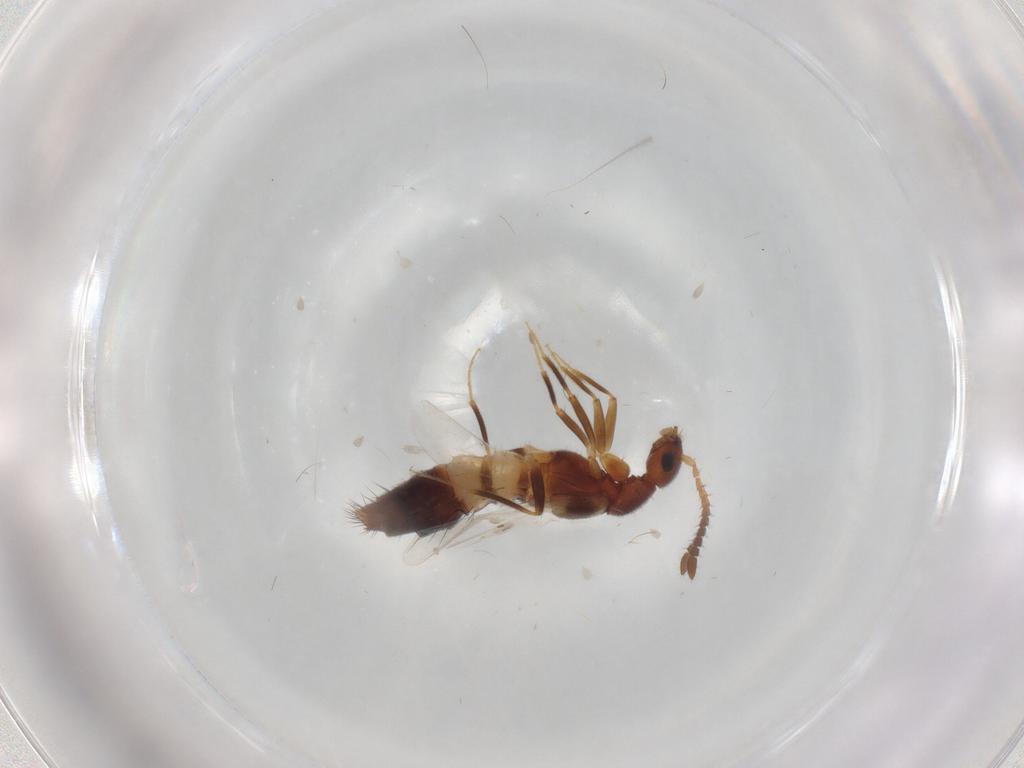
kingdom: Animalia
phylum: Arthropoda
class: Insecta
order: Coleoptera
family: Staphylinidae
